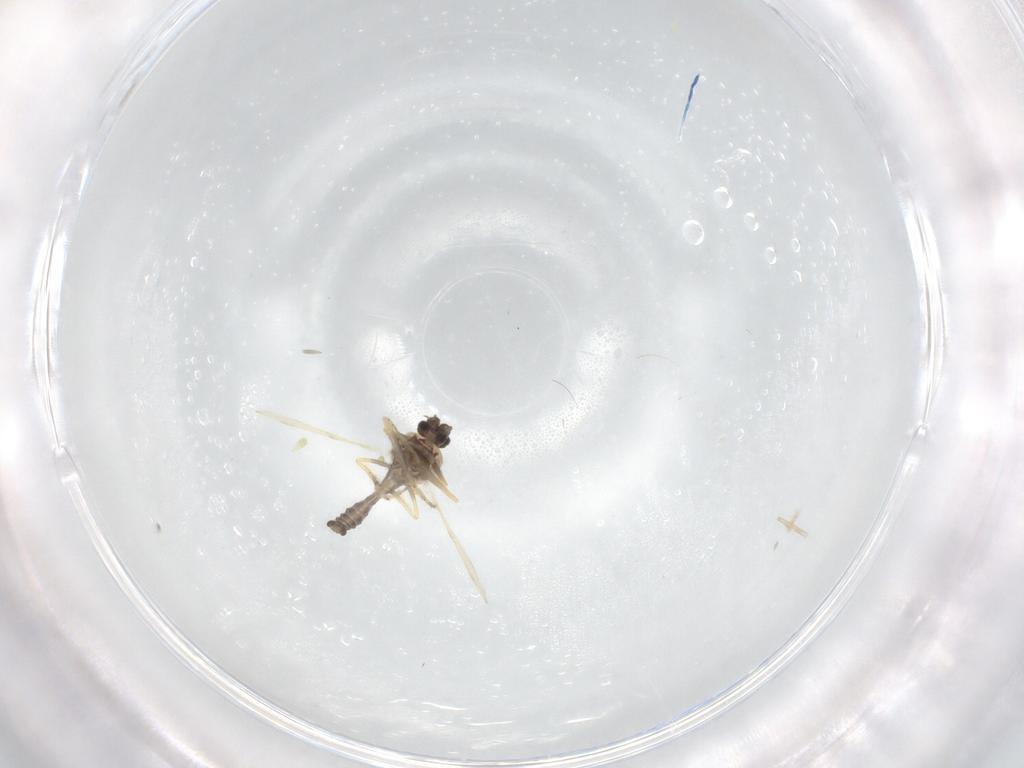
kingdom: Animalia
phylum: Arthropoda
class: Insecta
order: Diptera
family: Ceratopogonidae
